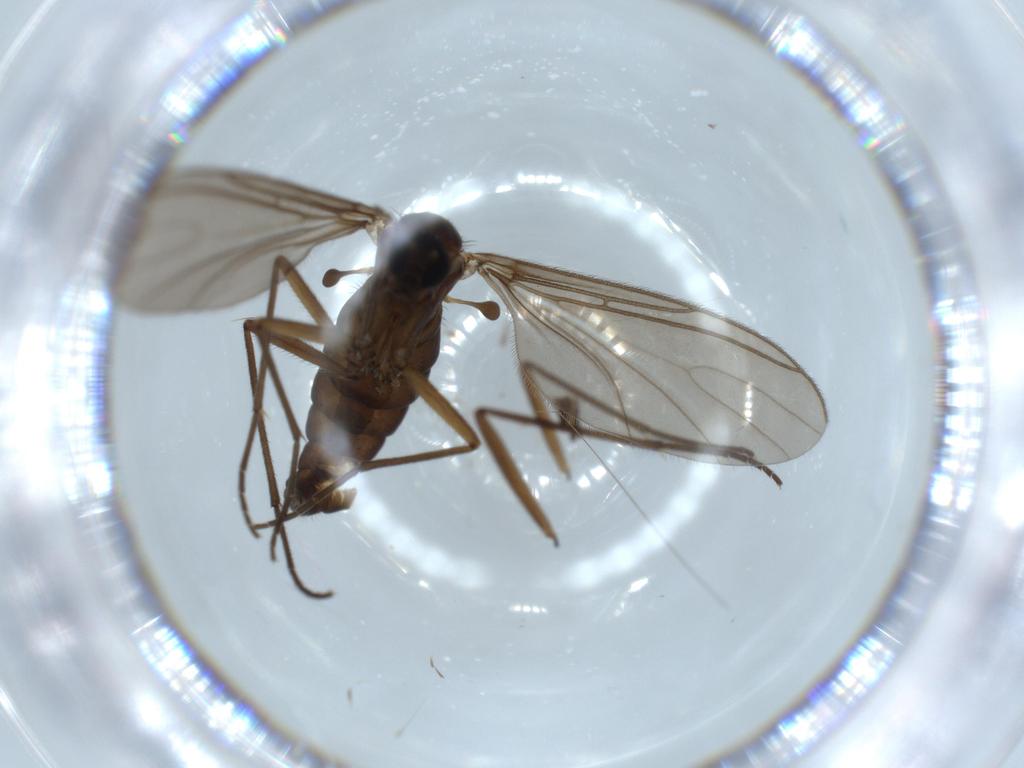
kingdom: Animalia
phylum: Arthropoda
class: Insecta
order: Diptera
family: Sciaridae
